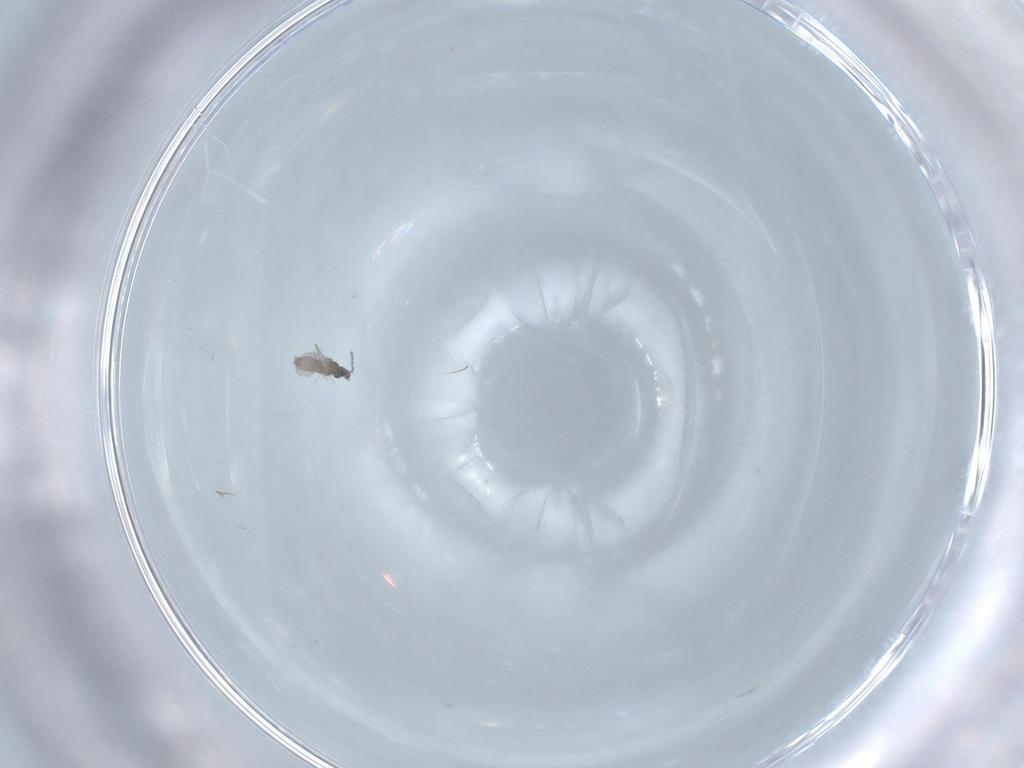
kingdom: Animalia
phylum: Arthropoda
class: Insecta
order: Diptera
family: Cecidomyiidae
